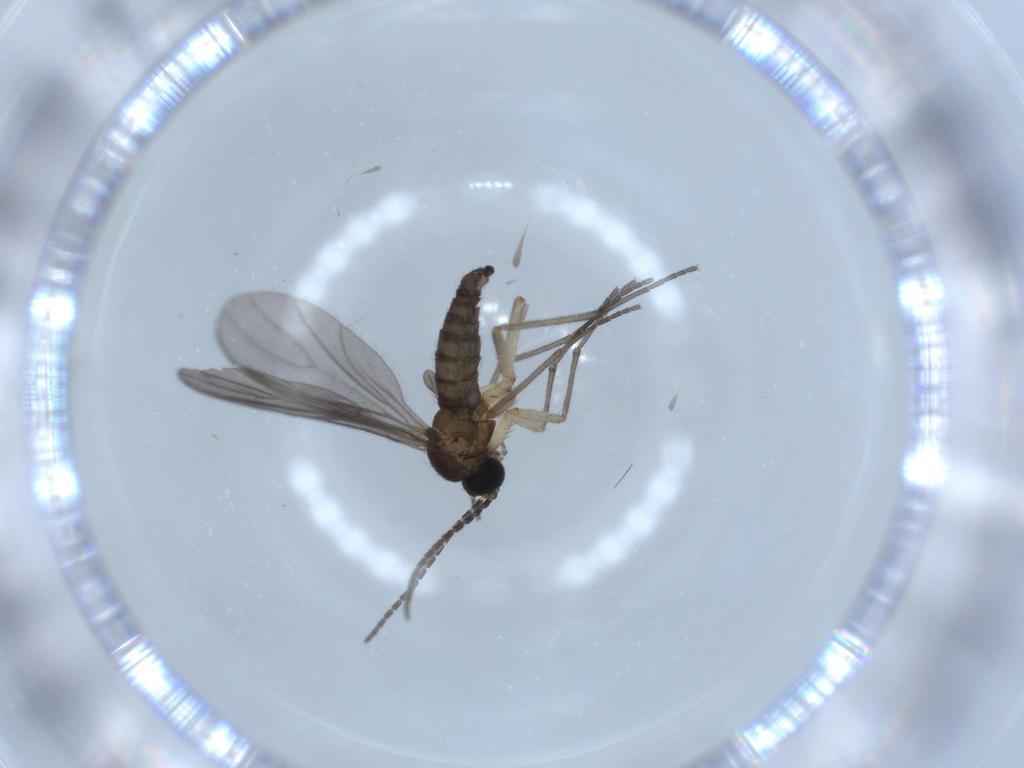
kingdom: Animalia
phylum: Arthropoda
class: Insecta
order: Diptera
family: Sciaridae
